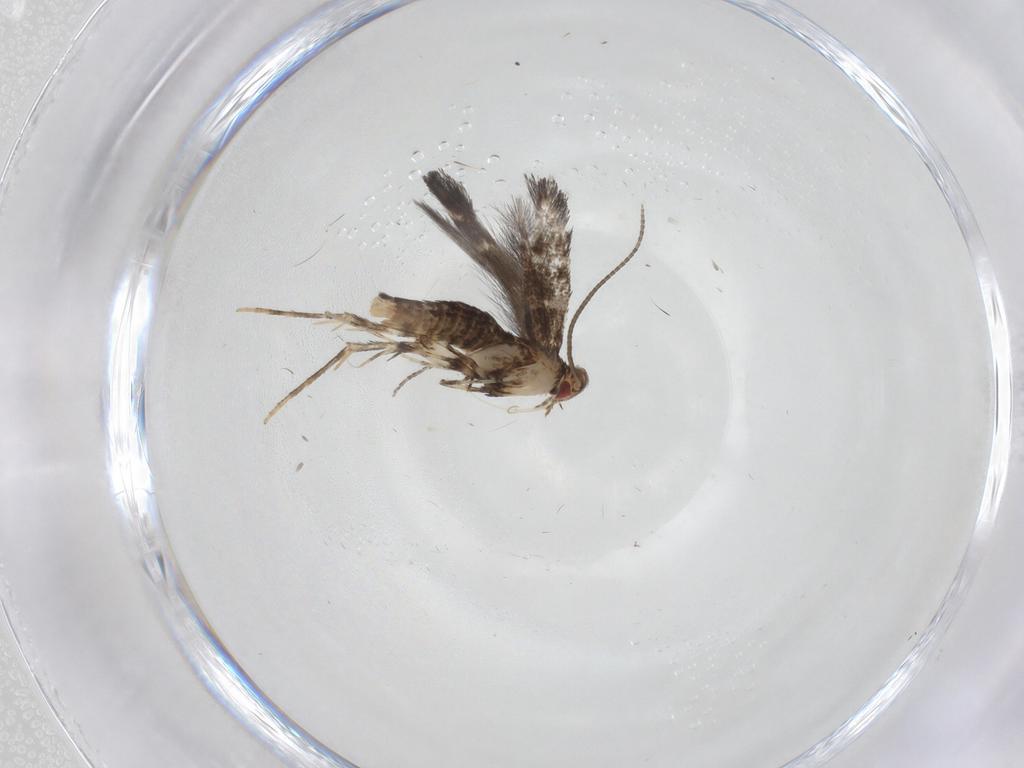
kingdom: Animalia
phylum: Arthropoda
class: Insecta
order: Lepidoptera
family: Gracillariidae
